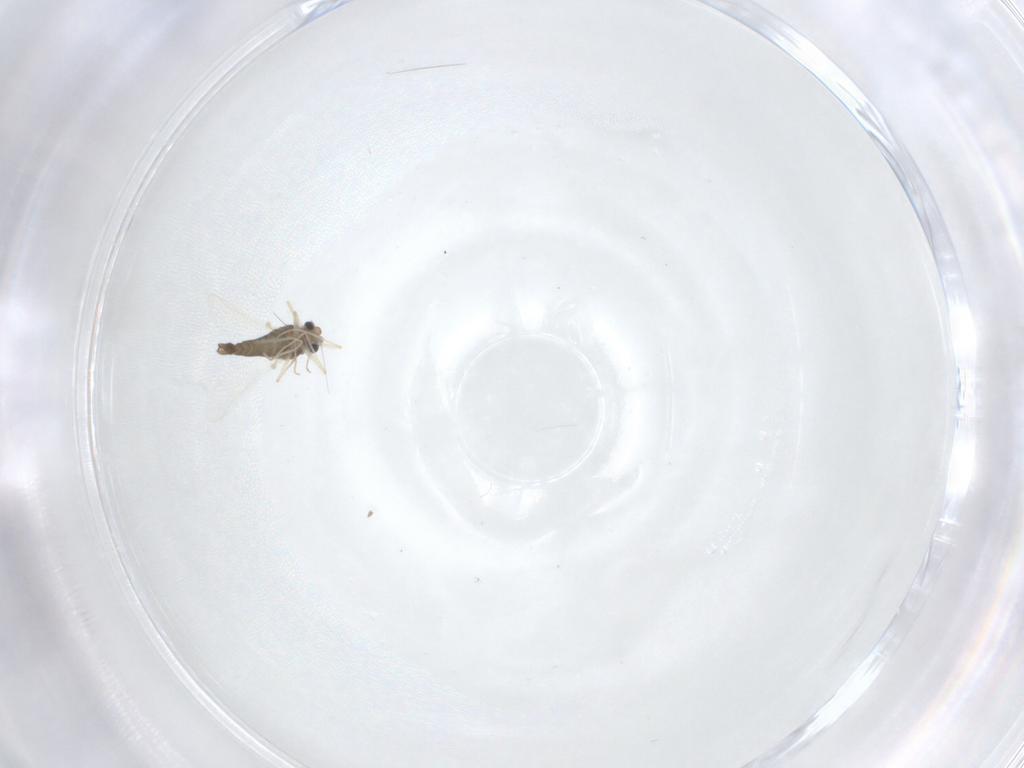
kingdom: Animalia
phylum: Arthropoda
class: Insecta
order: Diptera
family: Chironomidae
